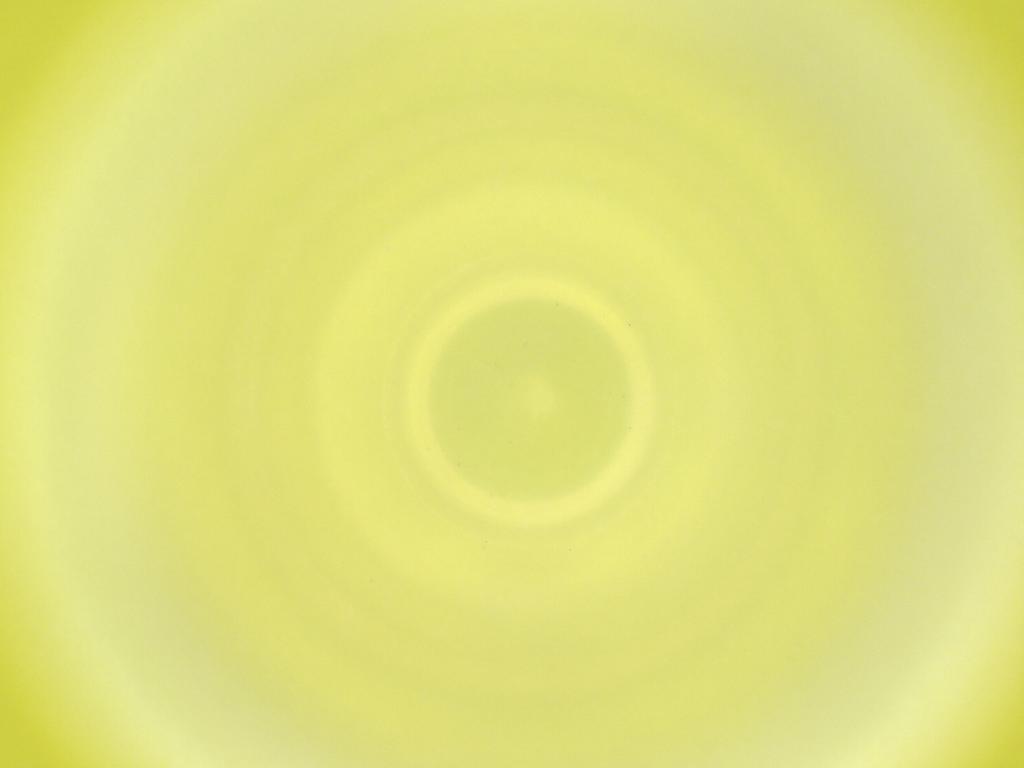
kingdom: Animalia
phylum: Arthropoda
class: Insecta
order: Diptera
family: Cecidomyiidae
